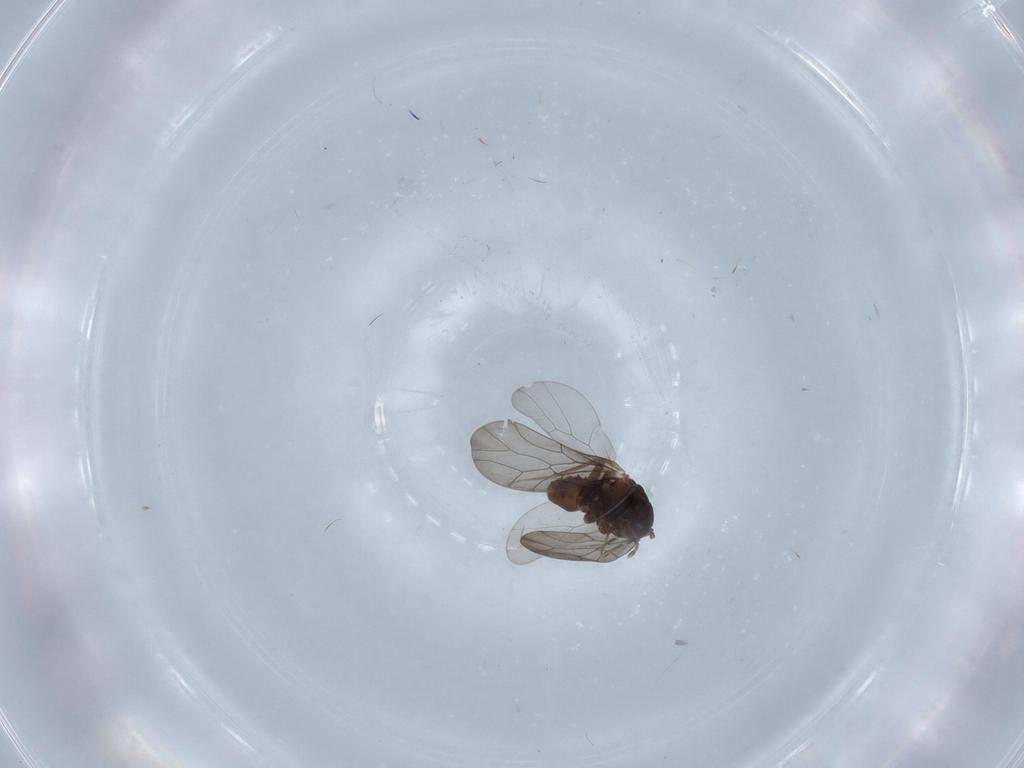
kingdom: Animalia
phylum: Arthropoda
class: Insecta
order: Psocodea
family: Lepidopsocidae
